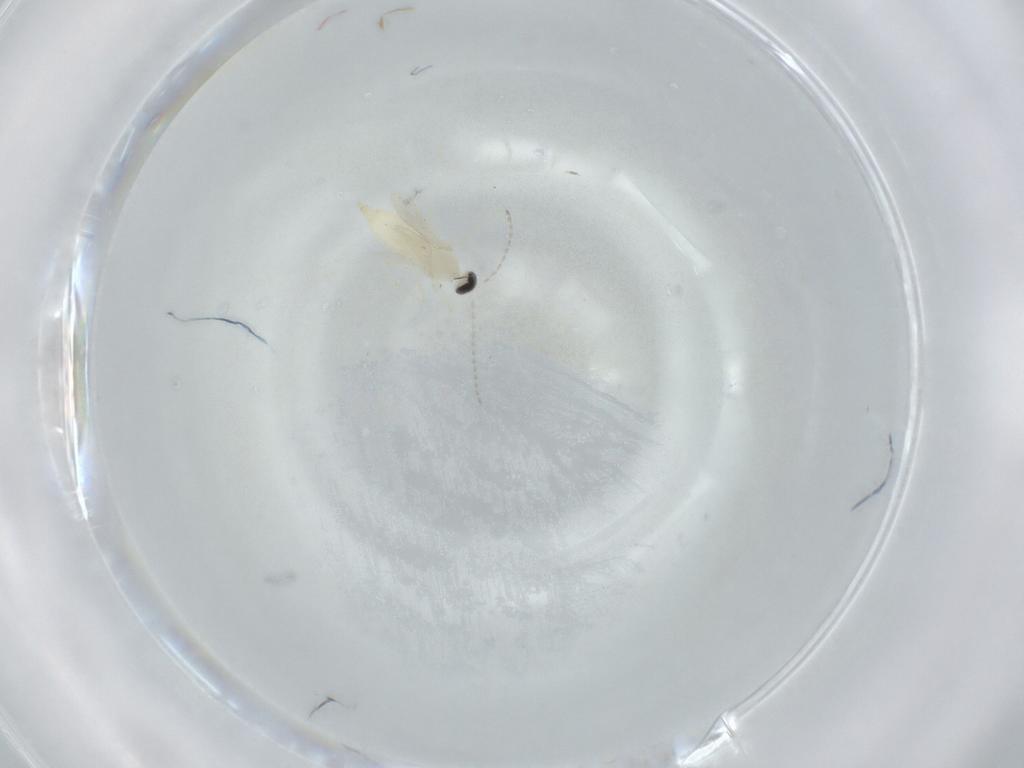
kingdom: Animalia
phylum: Arthropoda
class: Insecta
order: Diptera
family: Cecidomyiidae
